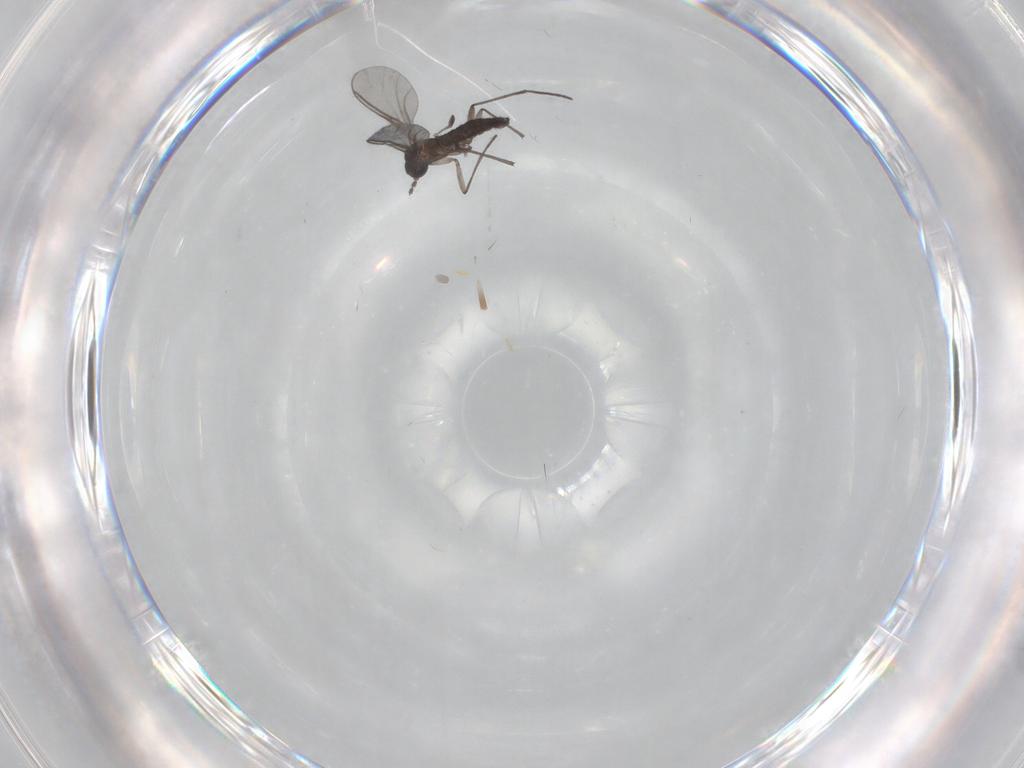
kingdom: Animalia
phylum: Arthropoda
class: Insecta
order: Diptera
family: Sciaridae
